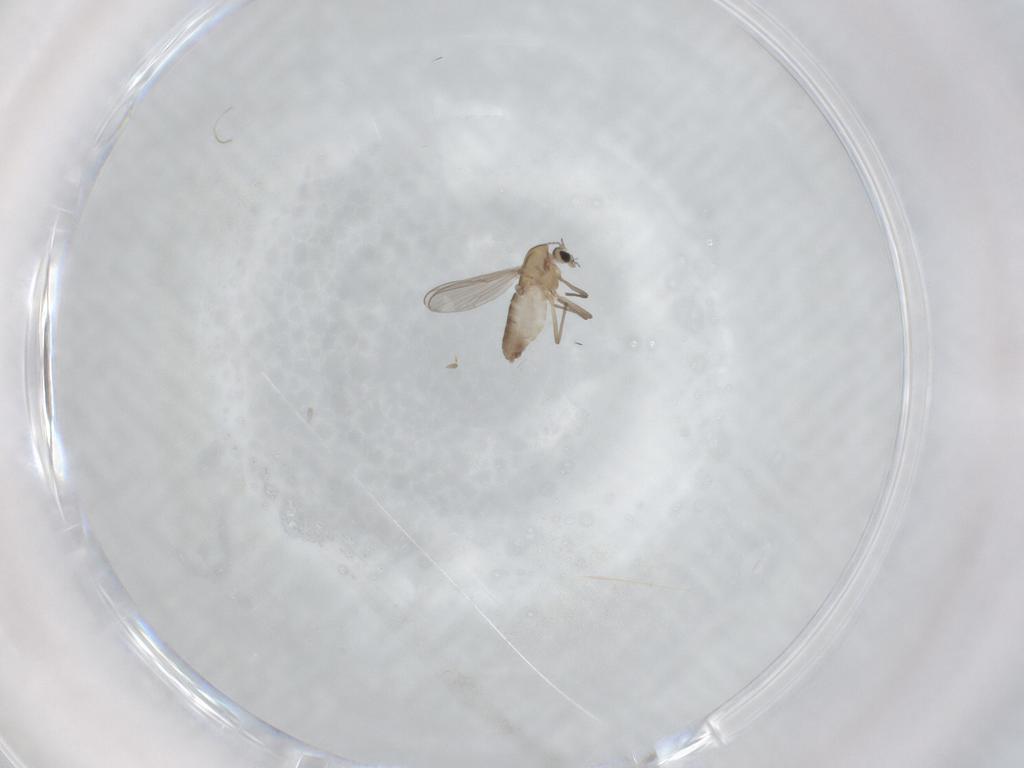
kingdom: Animalia
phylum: Arthropoda
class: Insecta
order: Diptera
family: Chironomidae
